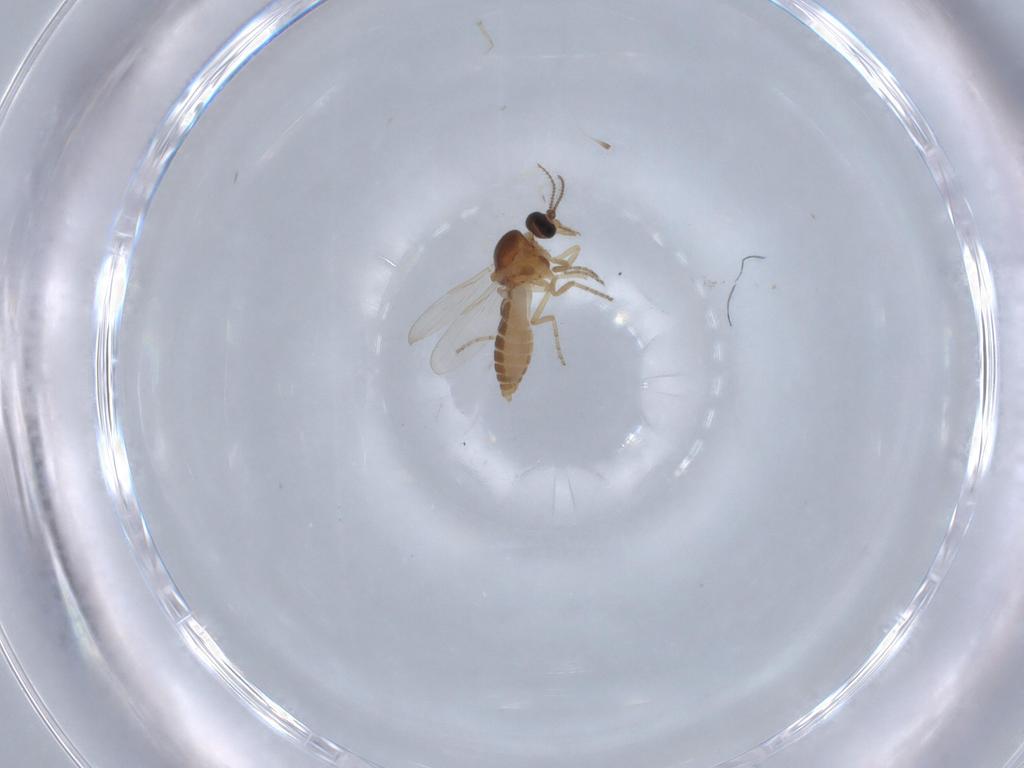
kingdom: Animalia
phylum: Arthropoda
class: Insecta
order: Diptera
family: Ceratopogonidae
